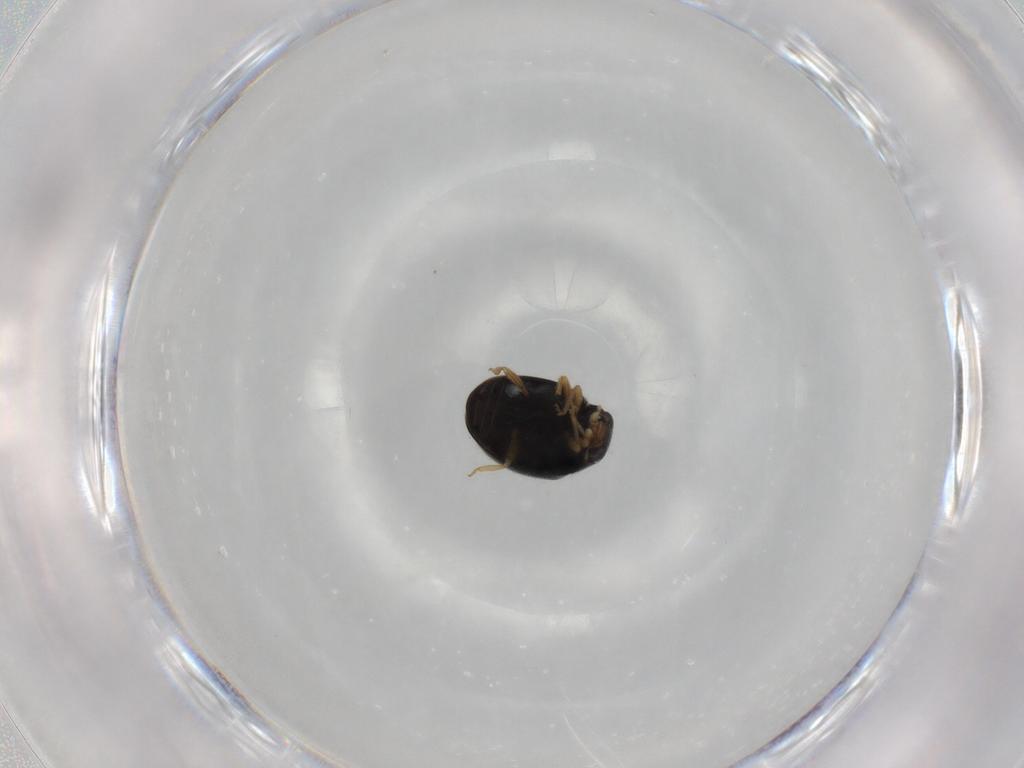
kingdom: Animalia
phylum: Arthropoda
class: Insecta
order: Coleoptera
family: Coccinellidae
